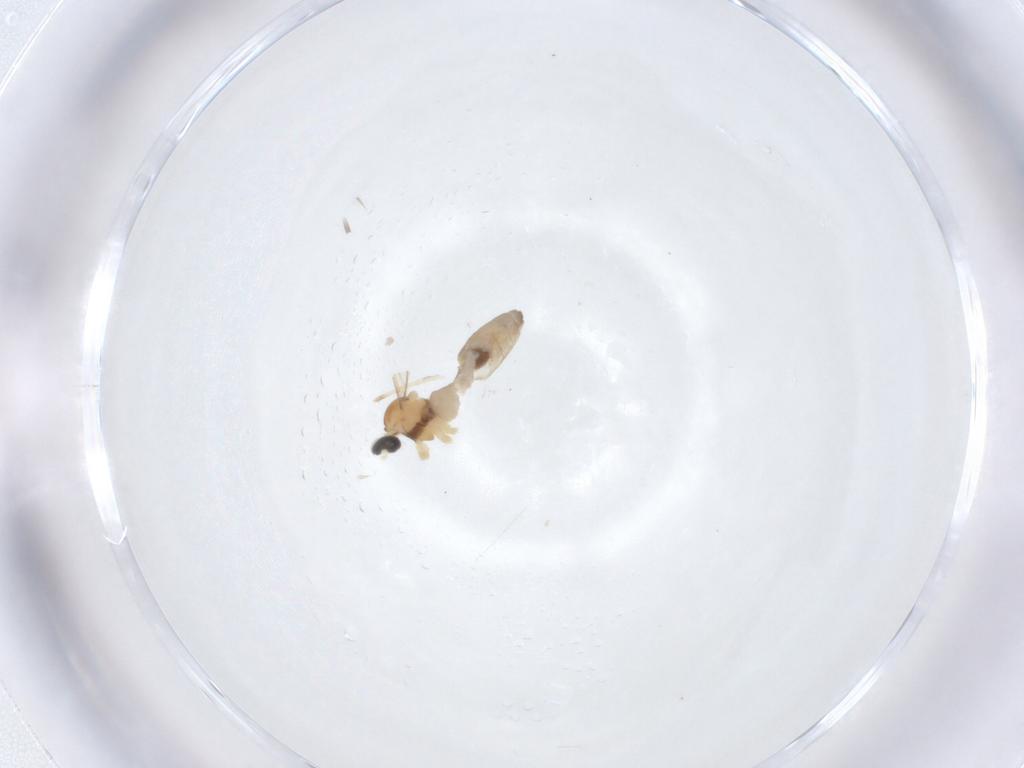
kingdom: Animalia
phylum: Arthropoda
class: Insecta
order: Diptera
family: Cecidomyiidae
